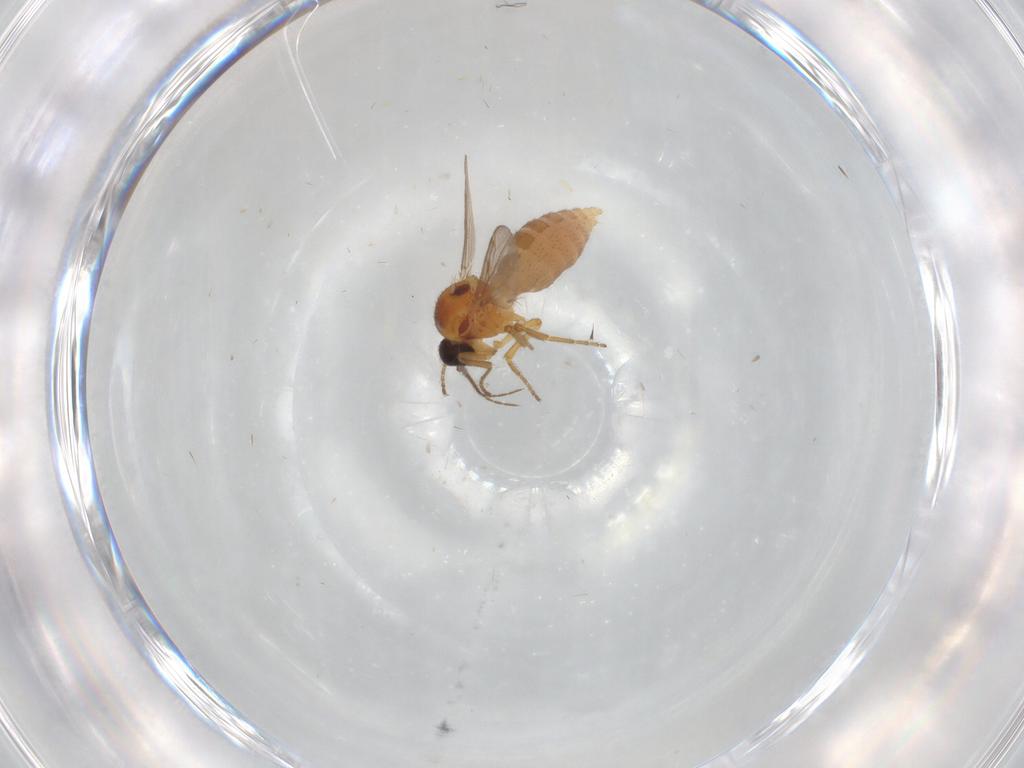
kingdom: Animalia
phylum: Arthropoda
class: Insecta
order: Diptera
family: Ceratopogonidae
